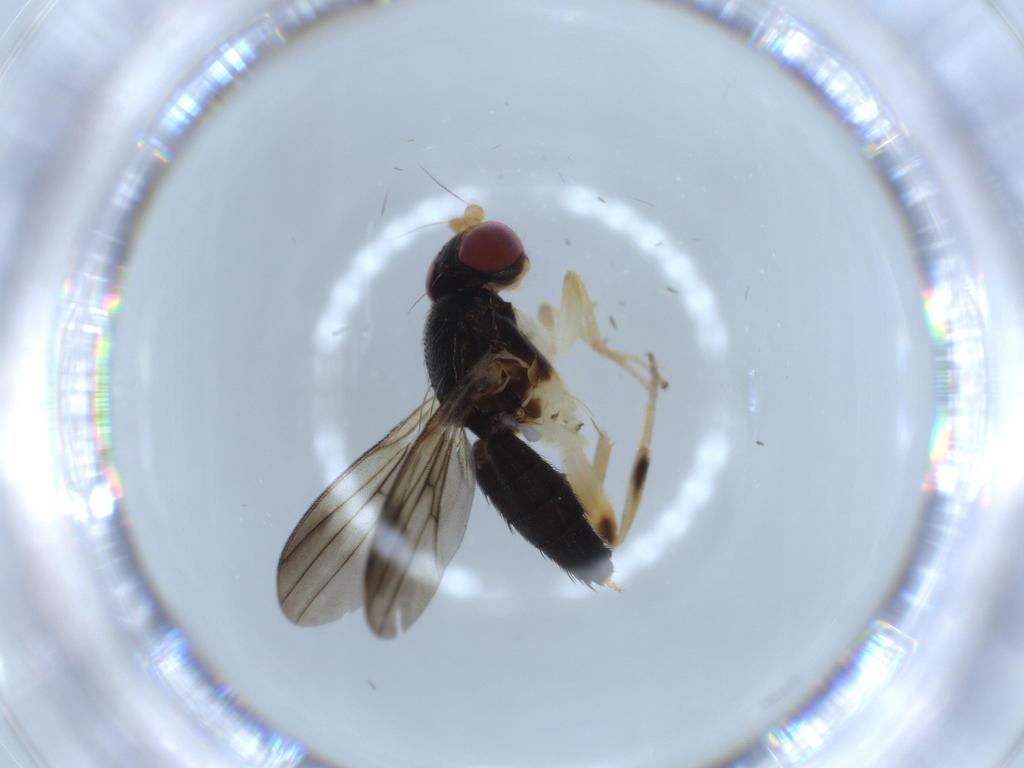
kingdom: Animalia
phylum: Arthropoda
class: Insecta
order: Diptera
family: Clusiidae
